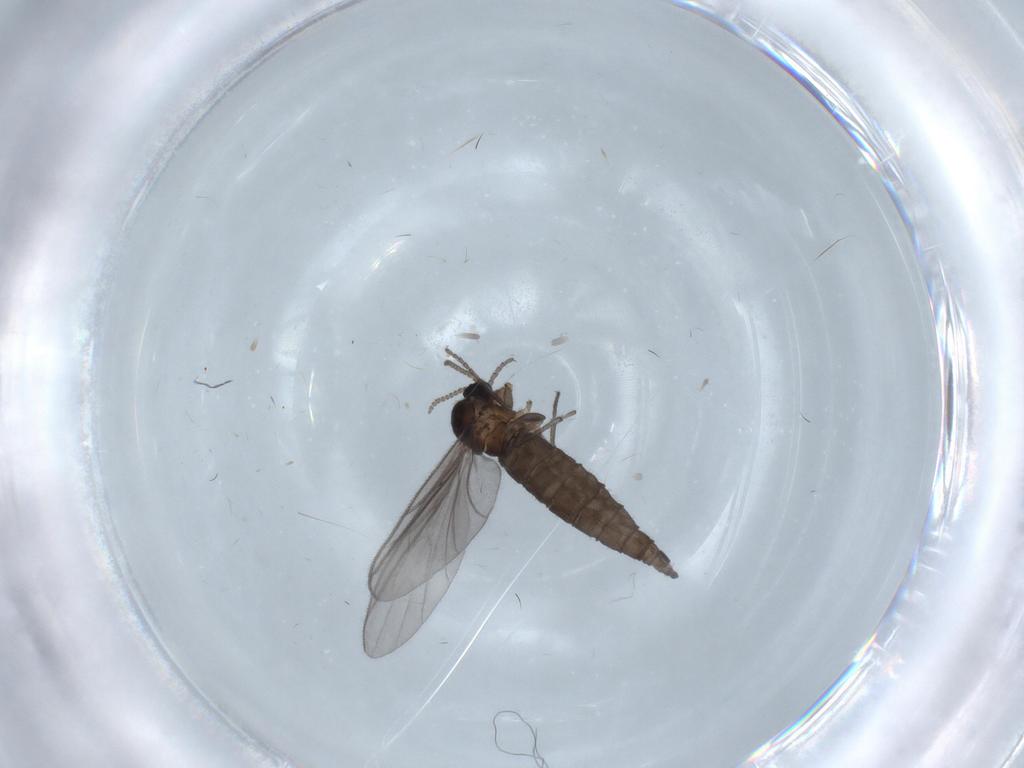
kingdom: Animalia
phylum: Arthropoda
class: Insecta
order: Diptera
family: Sciaridae
